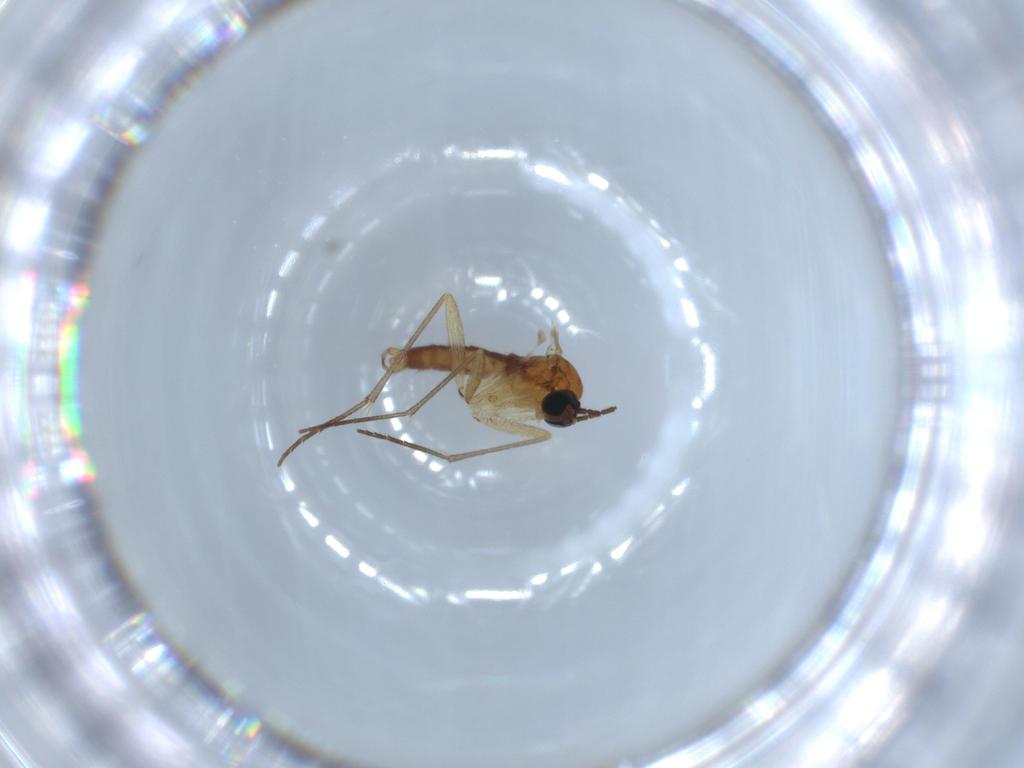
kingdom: Animalia
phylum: Arthropoda
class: Insecta
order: Diptera
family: Sciaridae
